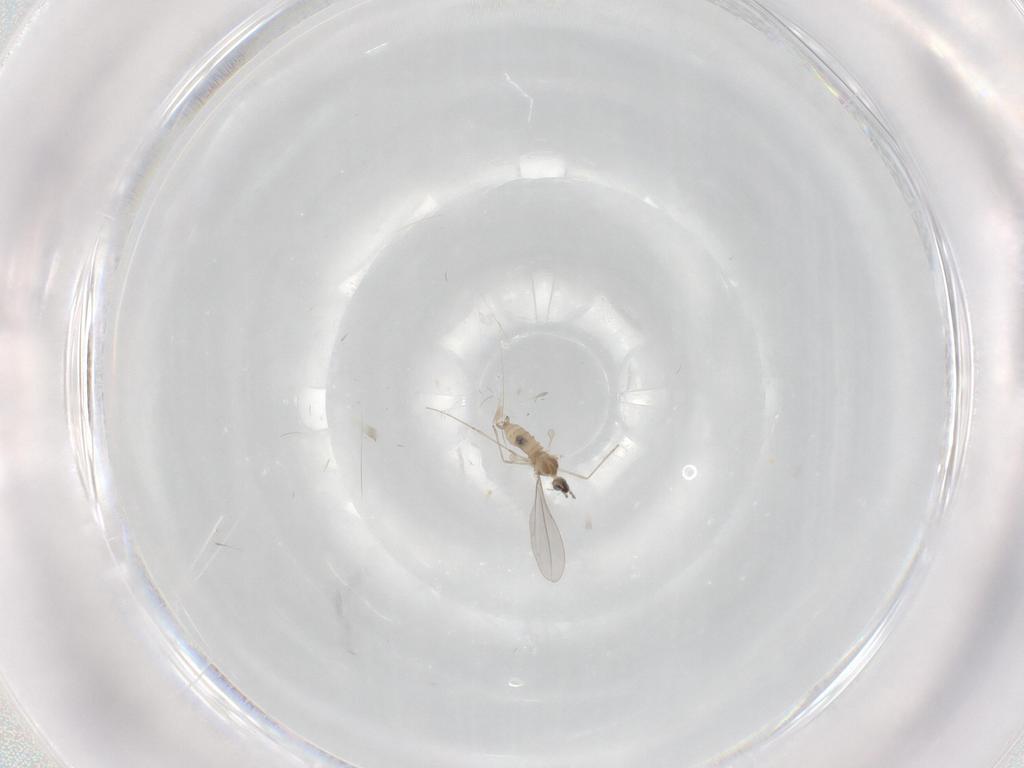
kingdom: Animalia
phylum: Arthropoda
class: Insecta
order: Diptera
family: Cecidomyiidae
